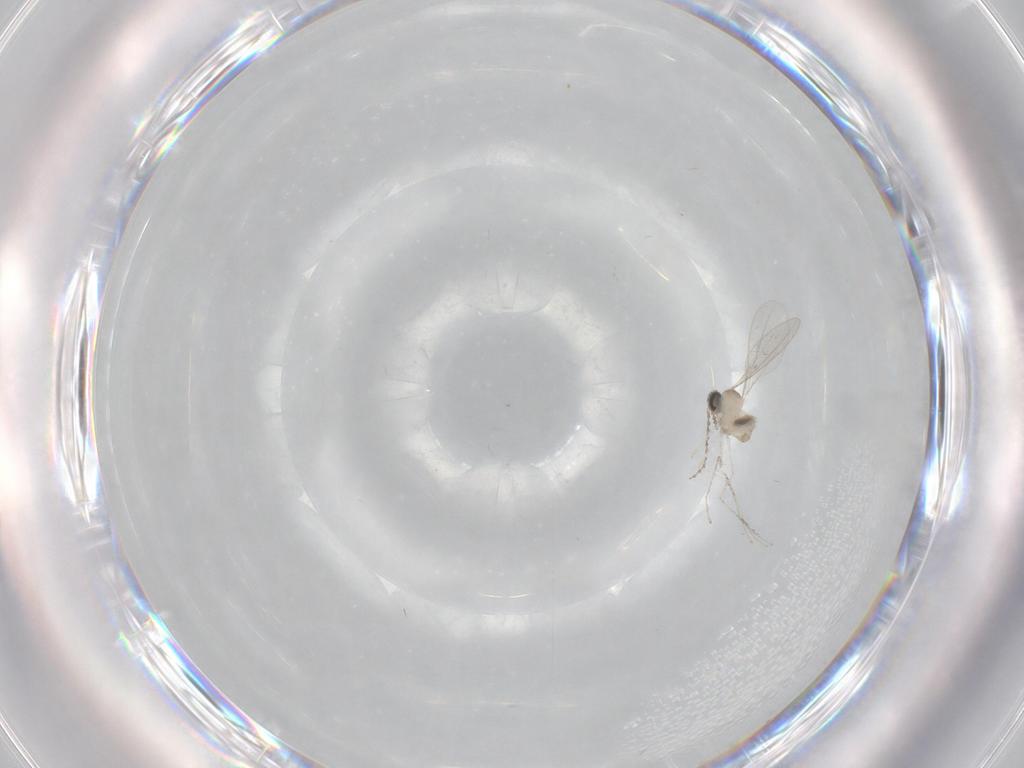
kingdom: Animalia
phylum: Arthropoda
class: Insecta
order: Diptera
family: Cecidomyiidae
